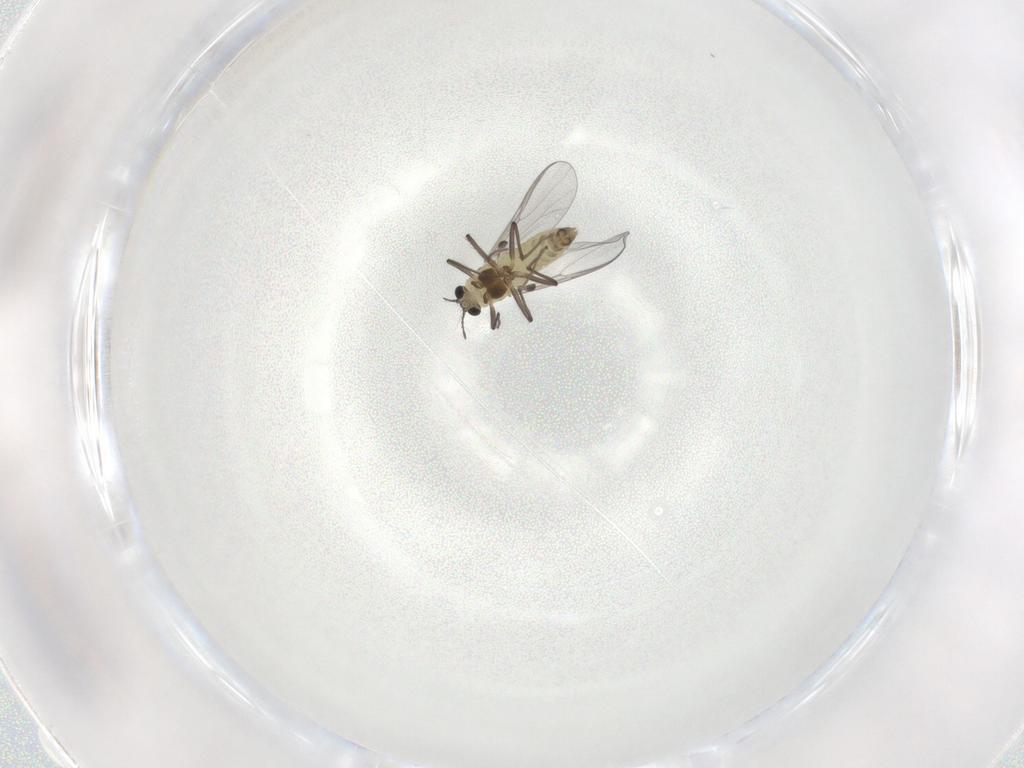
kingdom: Animalia
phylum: Arthropoda
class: Insecta
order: Diptera
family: Chironomidae
